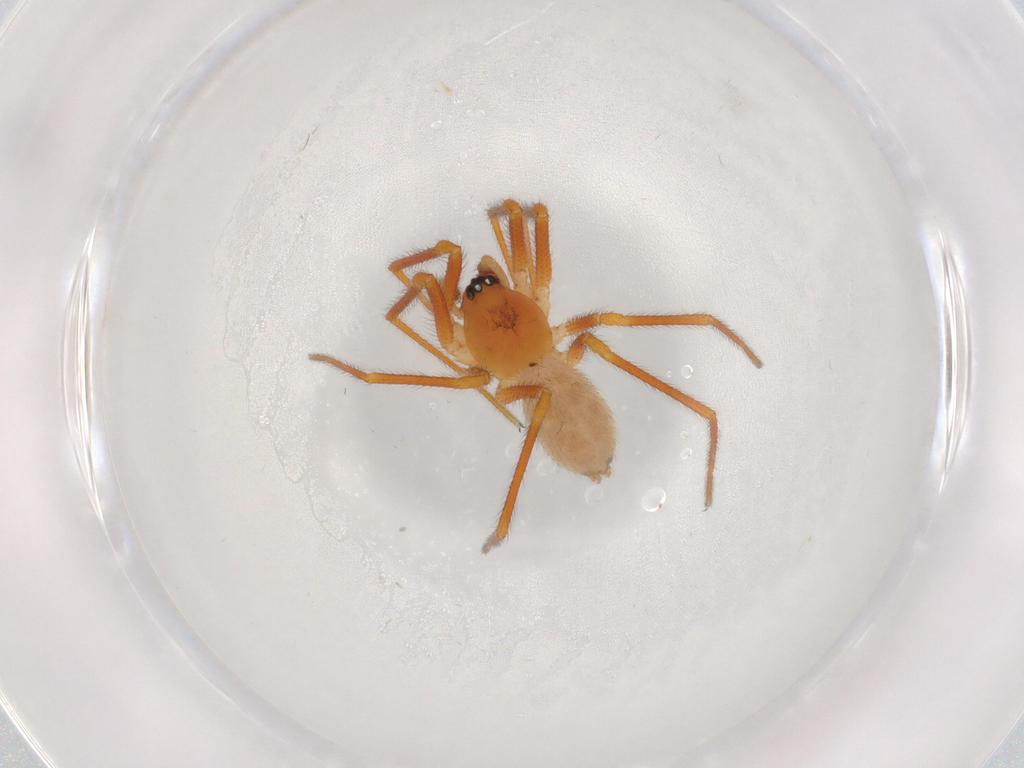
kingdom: Animalia
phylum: Arthropoda
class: Arachnida
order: Araneae
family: Linyphiidae
